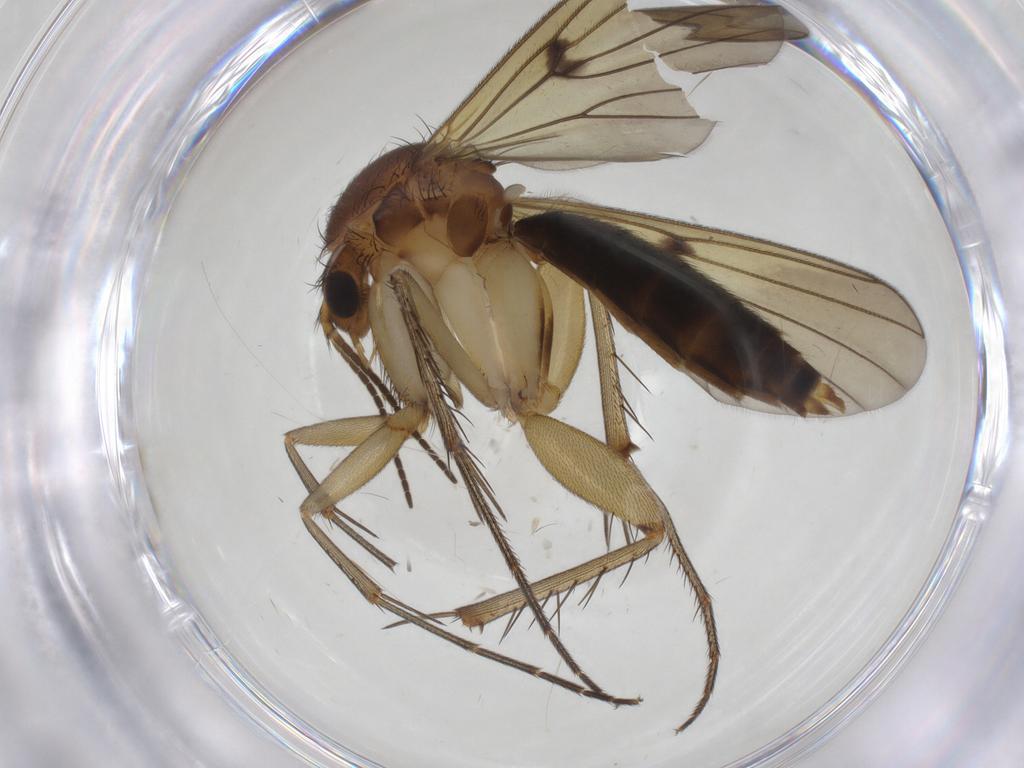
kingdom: Animalia
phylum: Arthropoda
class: Insecta
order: Diptera
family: Mycetophilidae
